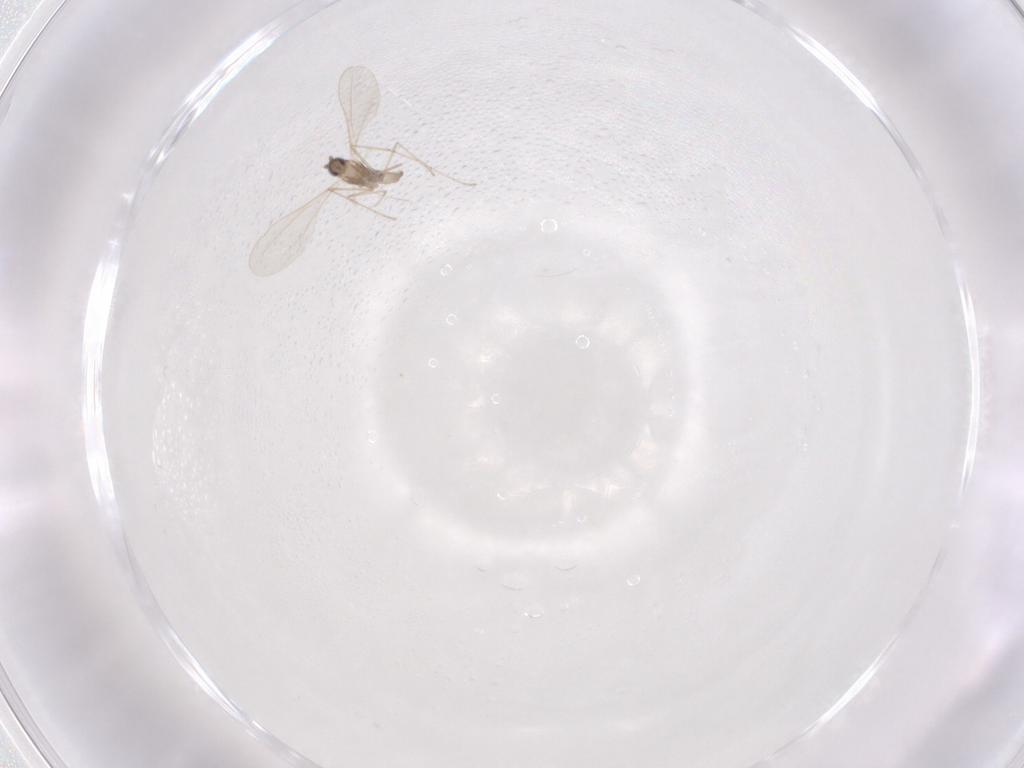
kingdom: Animalia
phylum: Arthropoda
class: Insecta
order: Diptera
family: Cecidomyiidae
